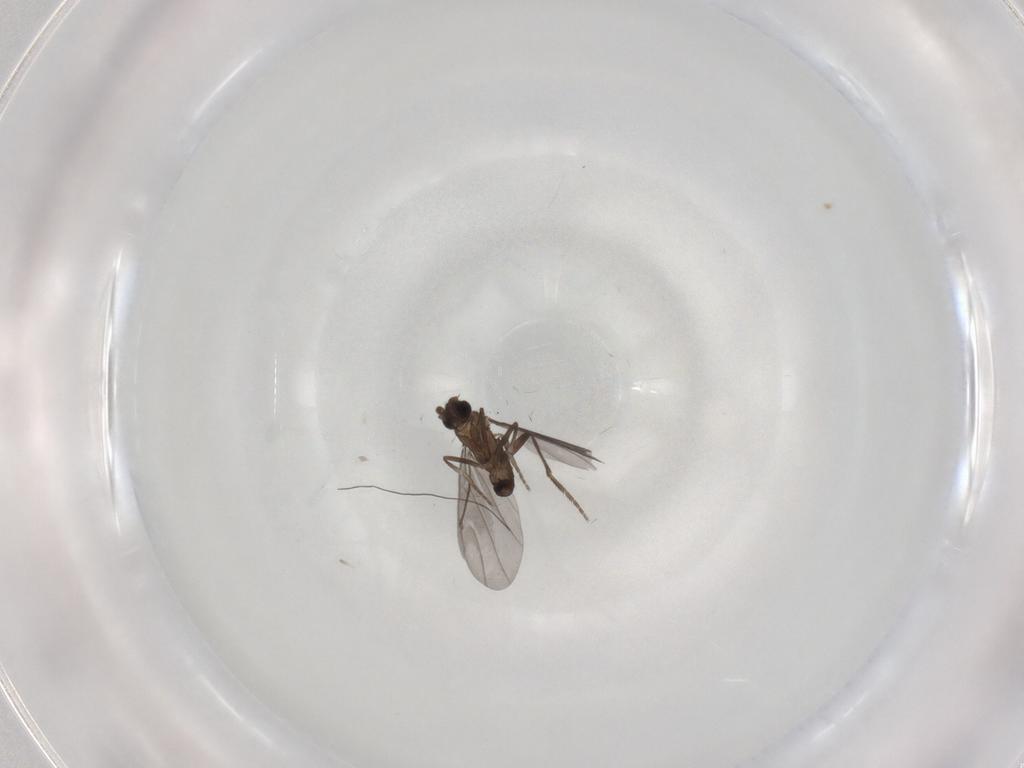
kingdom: Animalia
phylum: Arthropoda
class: Insecta
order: Diptera
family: Phoridae
